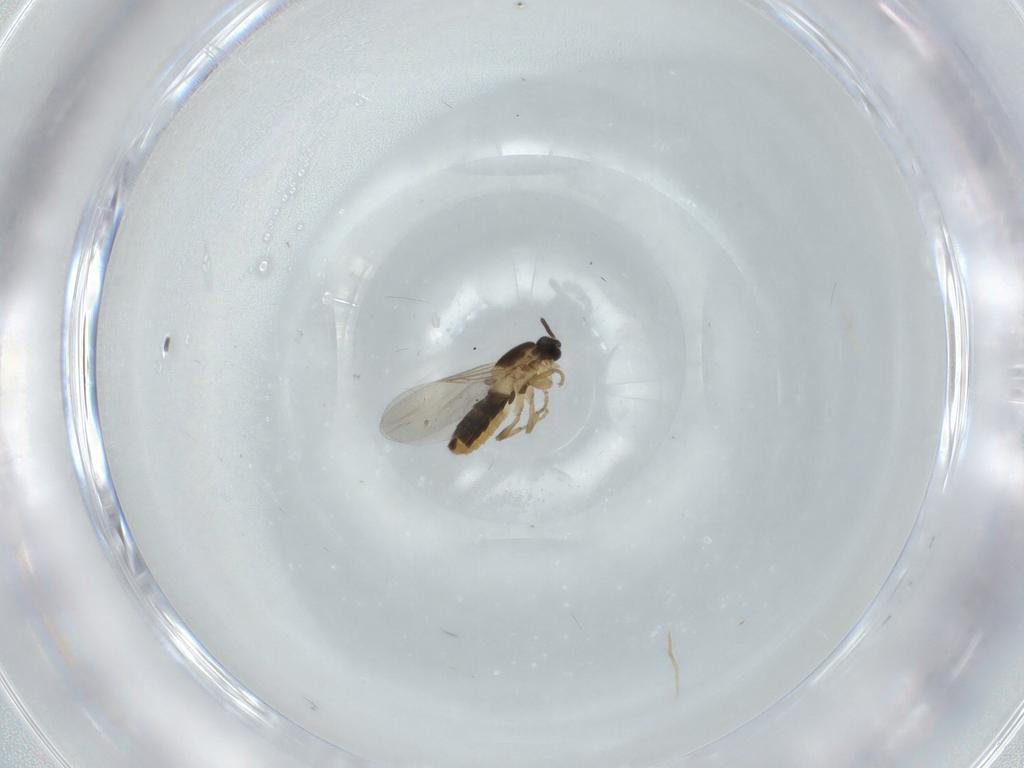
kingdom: Animalia
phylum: Arthropoda
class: Insecta
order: Diptera
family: Scatopsidae
